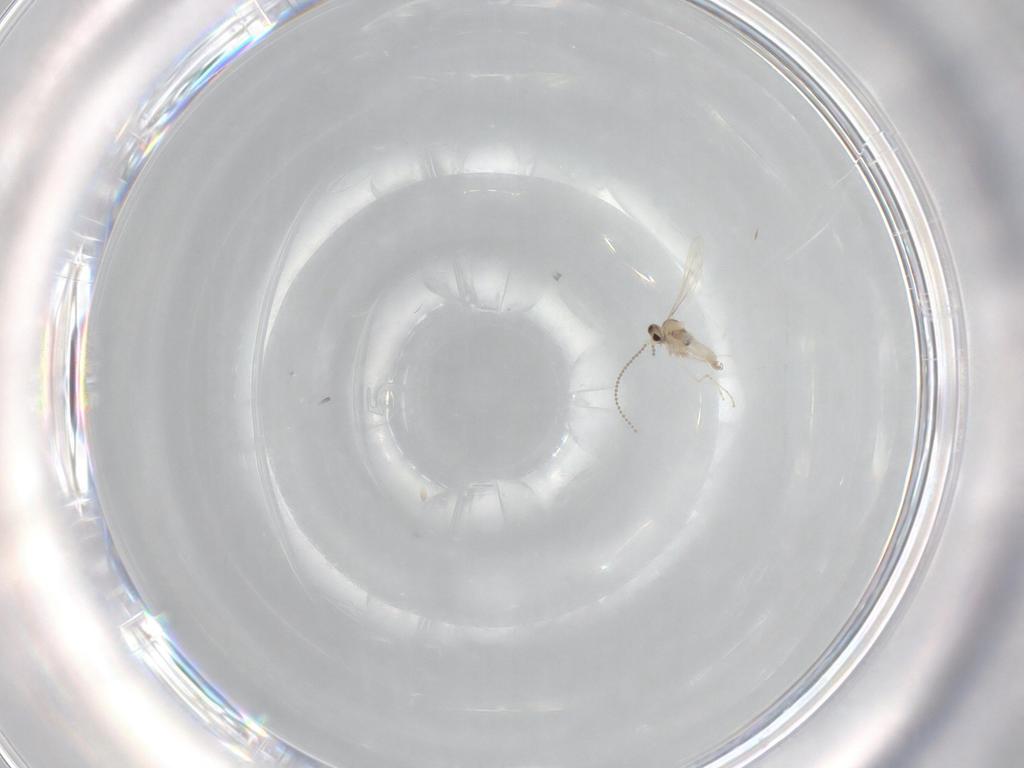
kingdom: Animalia
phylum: Arthropoda
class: Insecta
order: Diptera
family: Cecidomyiidae
